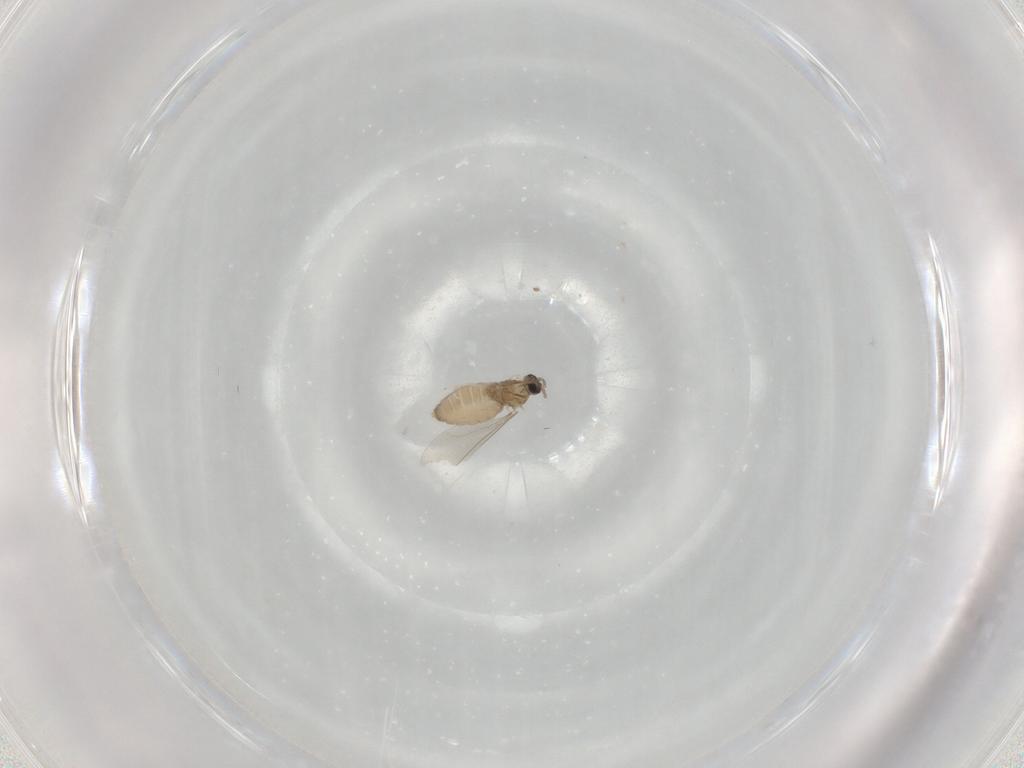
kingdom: Animalia
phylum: Arthropoda
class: Insecta
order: Diptera
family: Cecidomyiidae
